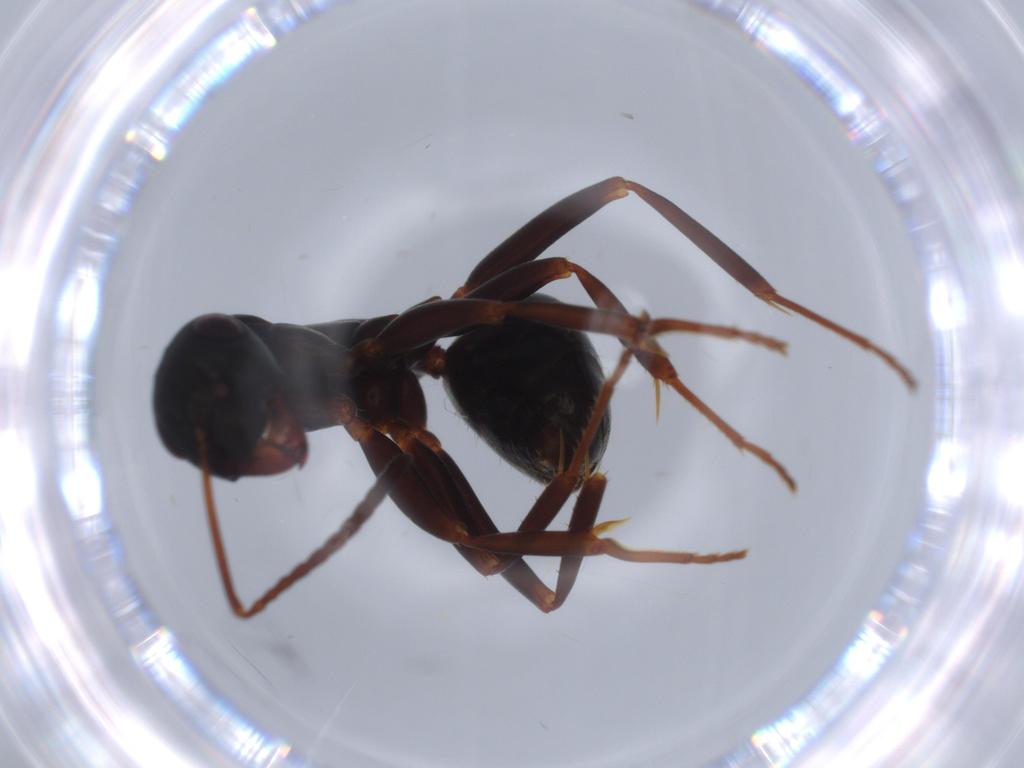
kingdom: Animalia
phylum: Arthropoda
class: Insecta
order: Hymenoptera
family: Formicidae
